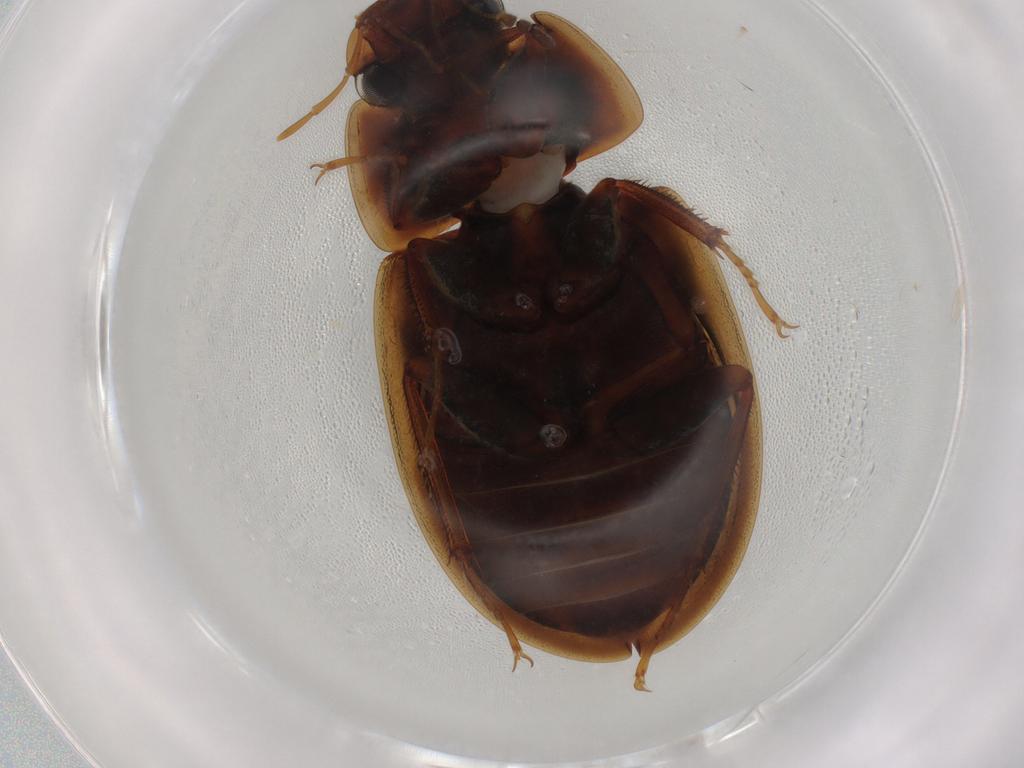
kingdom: Animalia
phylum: Arthropoda
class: Insecta
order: Coleoptera
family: Hydrophilidae
